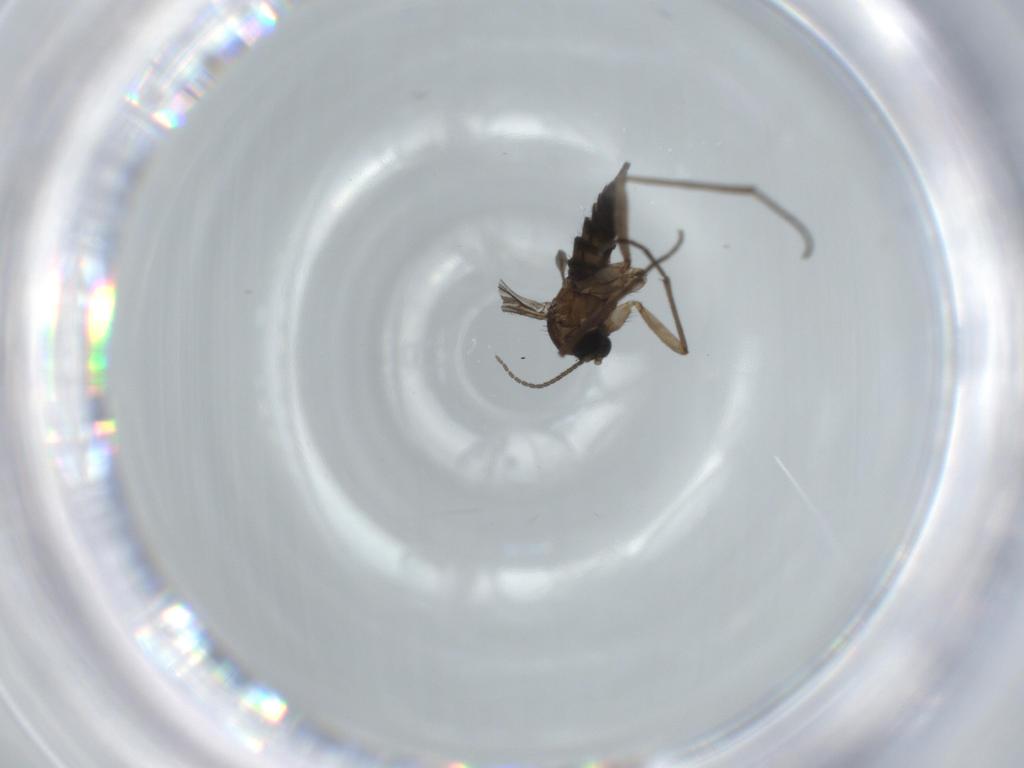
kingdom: Animalia
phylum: Arthropoda
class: Insecta
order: Diptera
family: Sciaridae
